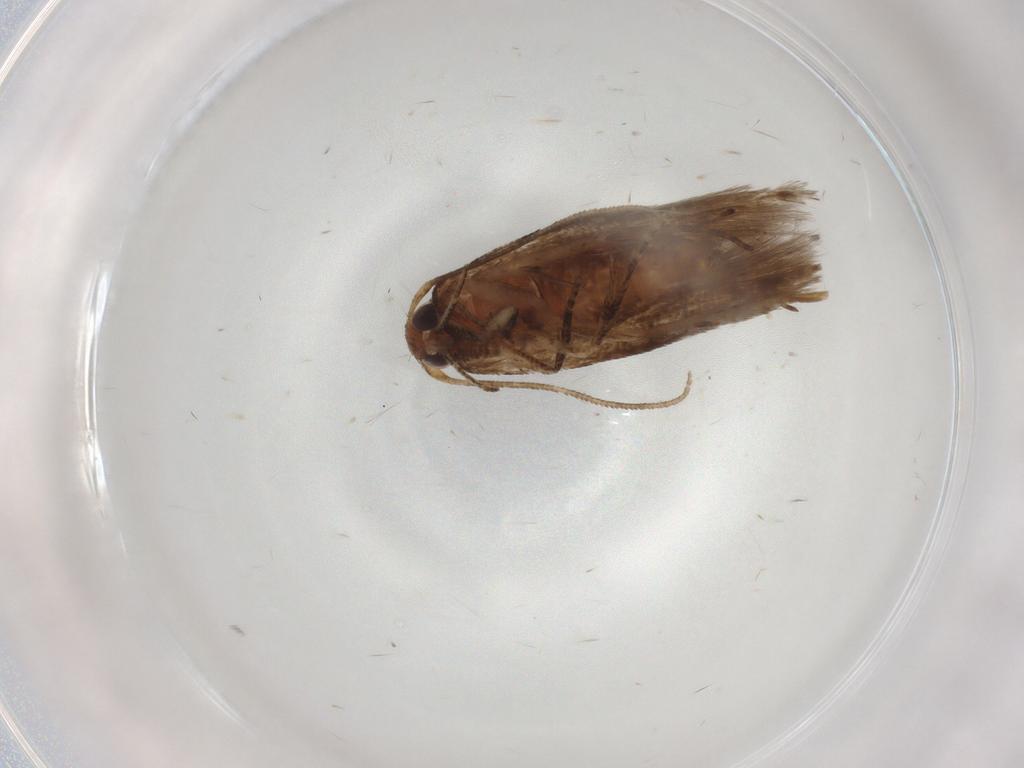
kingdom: Animalia
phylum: Arthropoda
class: Insecta
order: Lepidoptera
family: Cosmopterigidae
